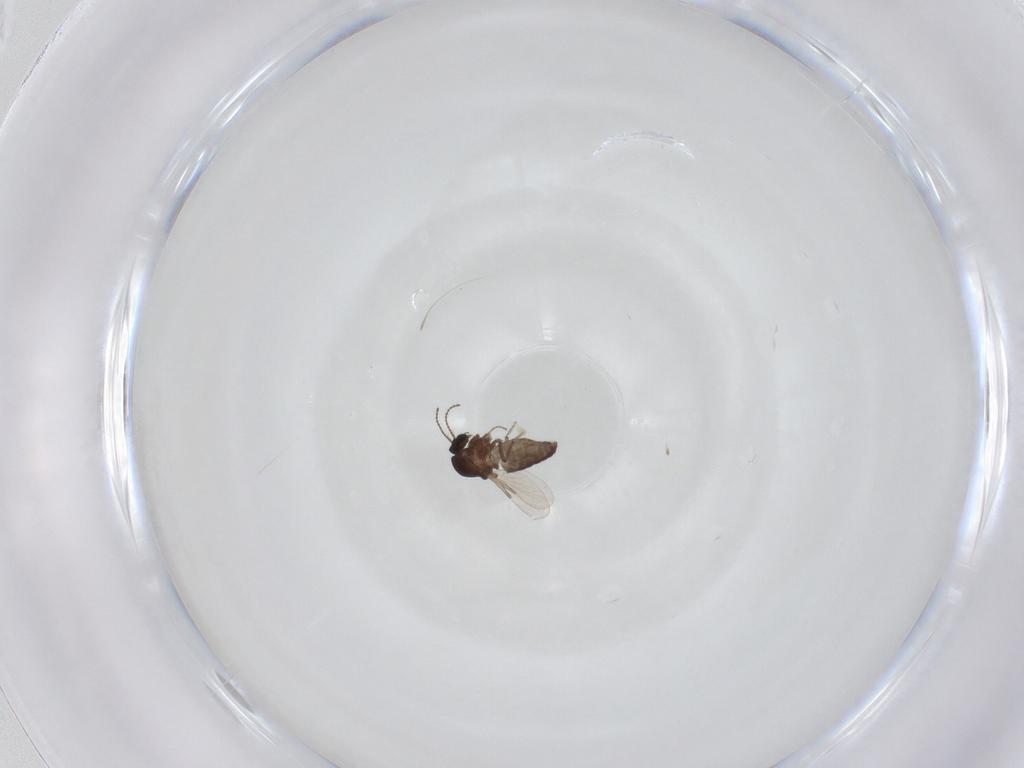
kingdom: Animalia
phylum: Arthropoda
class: Insecta
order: Diptera
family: Ceratopogonidae
